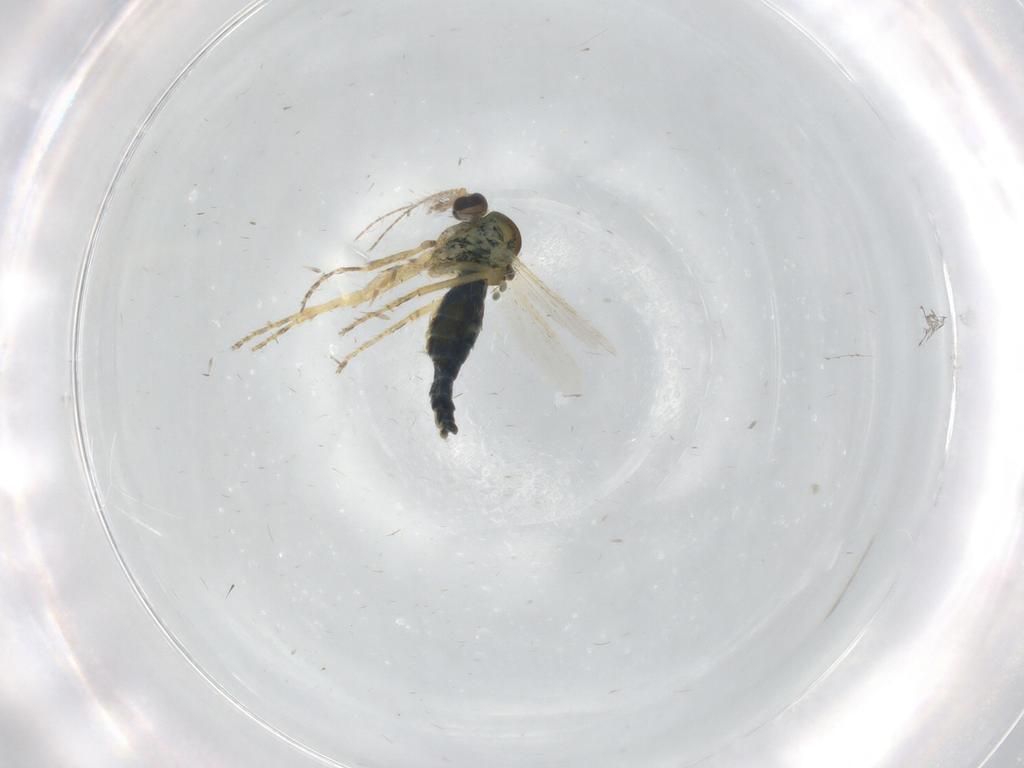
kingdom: Animalia
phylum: Arthropoda
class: Insecta
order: Diptera
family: Ceratopogonidae
